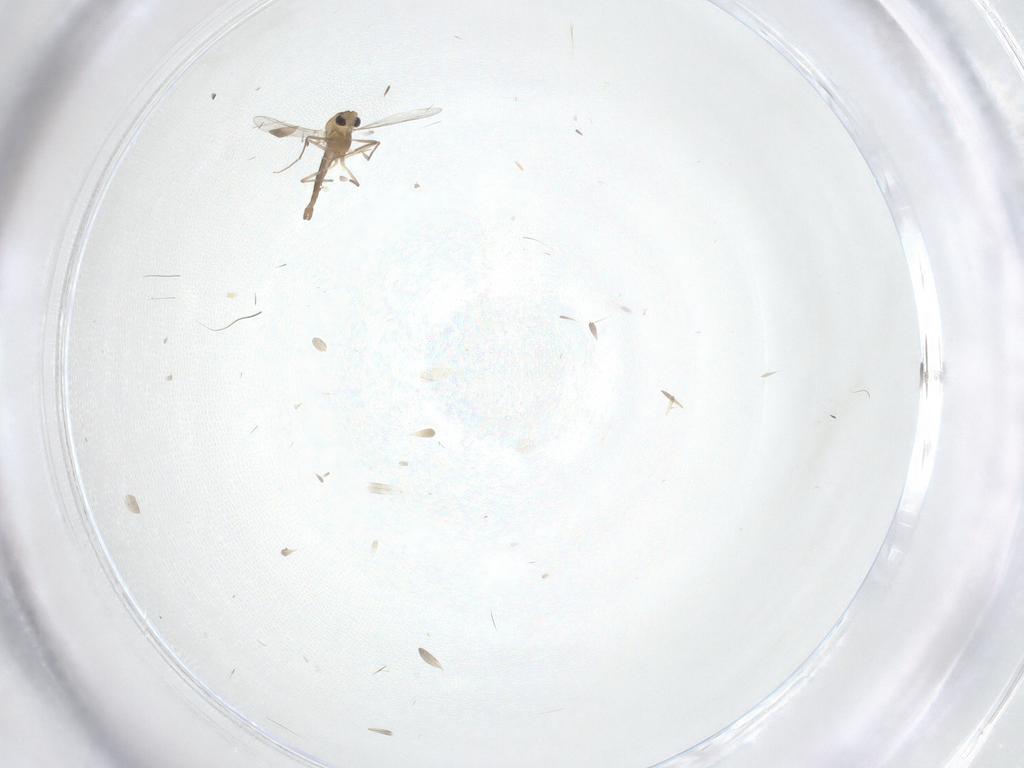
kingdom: Animalia
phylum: Arthropoda
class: Insecta
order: Diptera
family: Chironomidae
